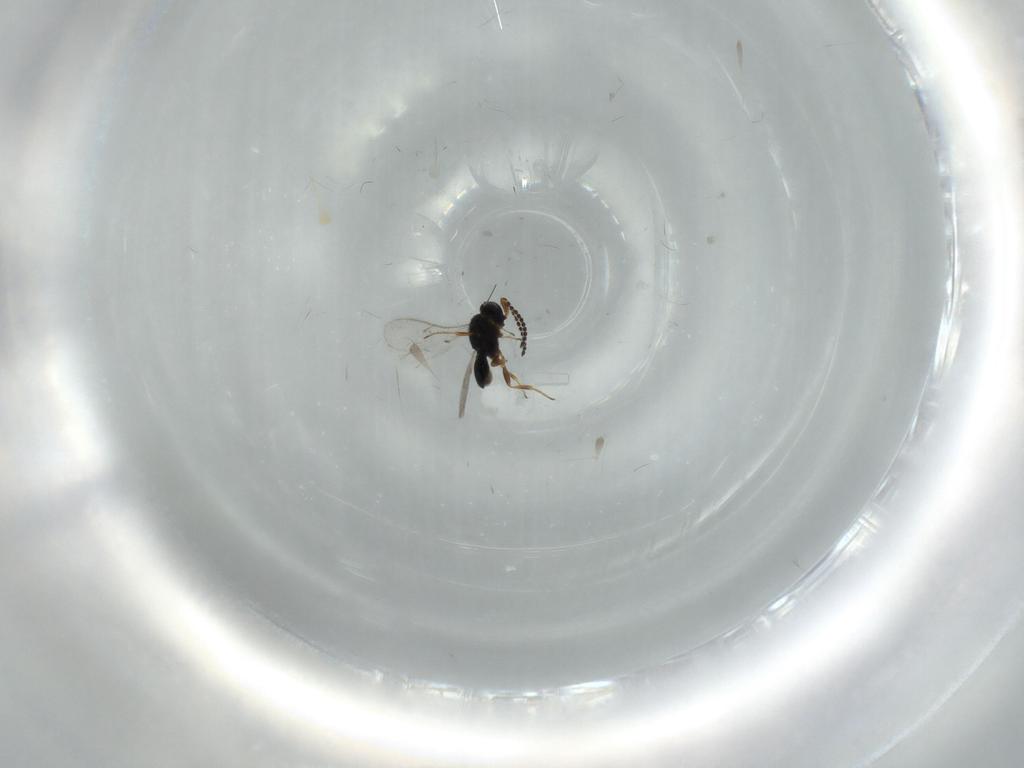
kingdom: Animalia
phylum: Arthropoda
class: Insecta
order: Hymenoptera
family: Scelionidae
